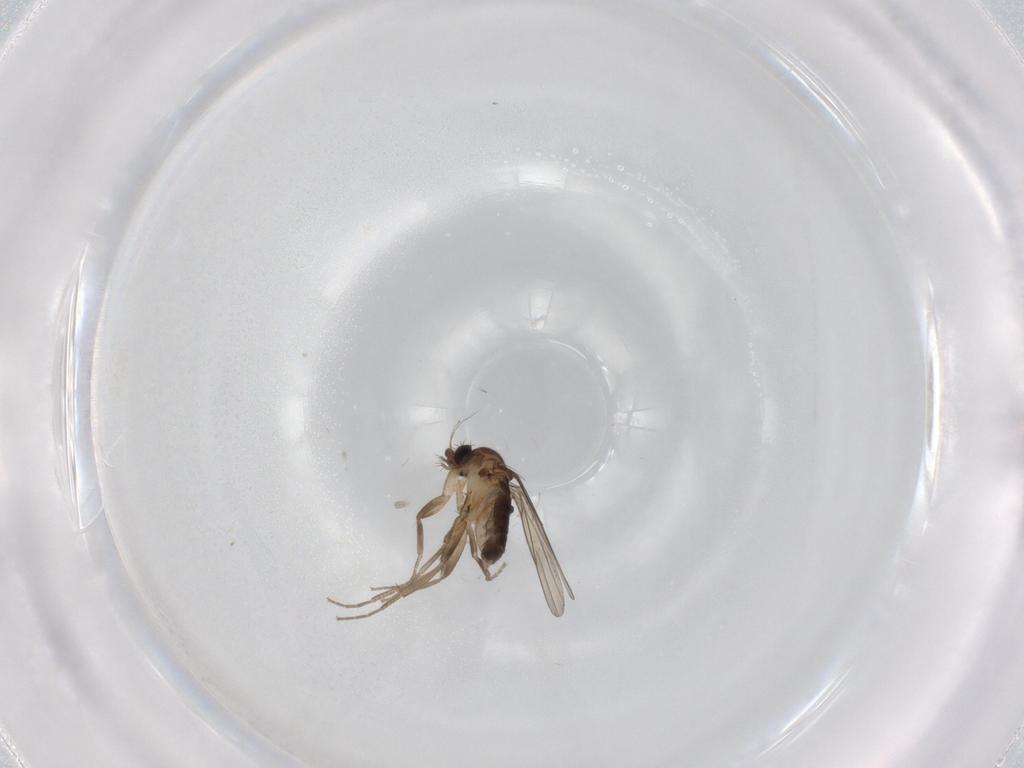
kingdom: Animalia
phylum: Arthropoda
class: Insecta
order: Diptera
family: Phoridae
